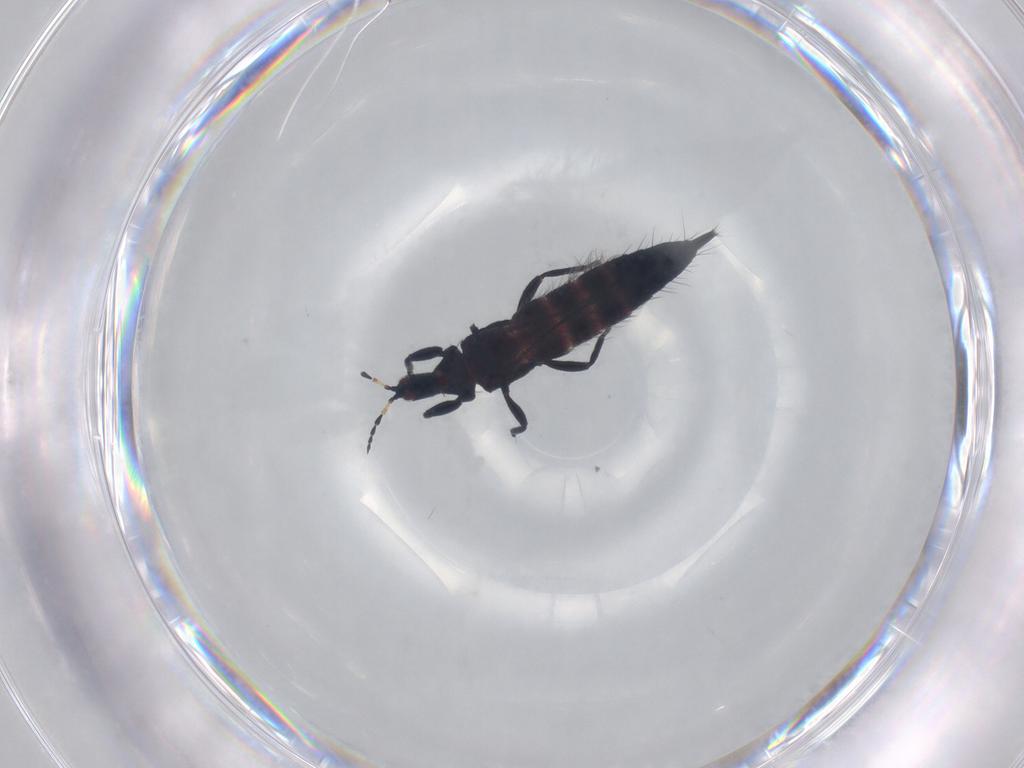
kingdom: Animalia
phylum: Arthropoda
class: Insecta
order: Thysanoptera
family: Phlaeothripidae
